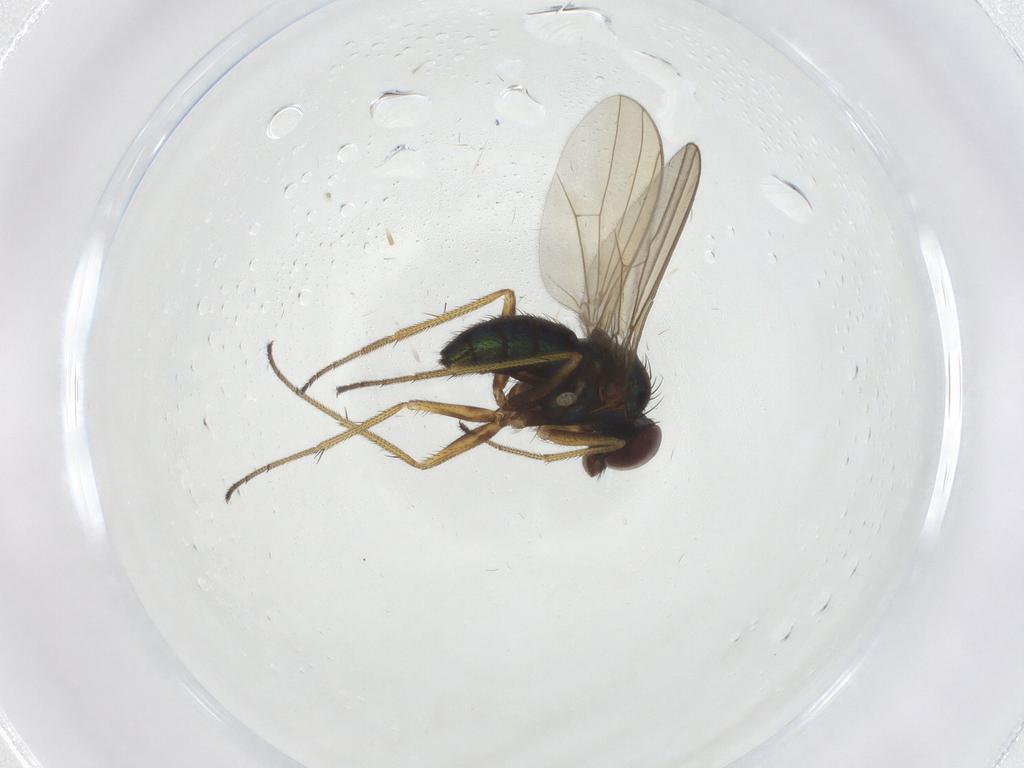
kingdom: Animalia
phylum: Arthropoda
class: Insecta
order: Diptera
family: Dolichopodidae
